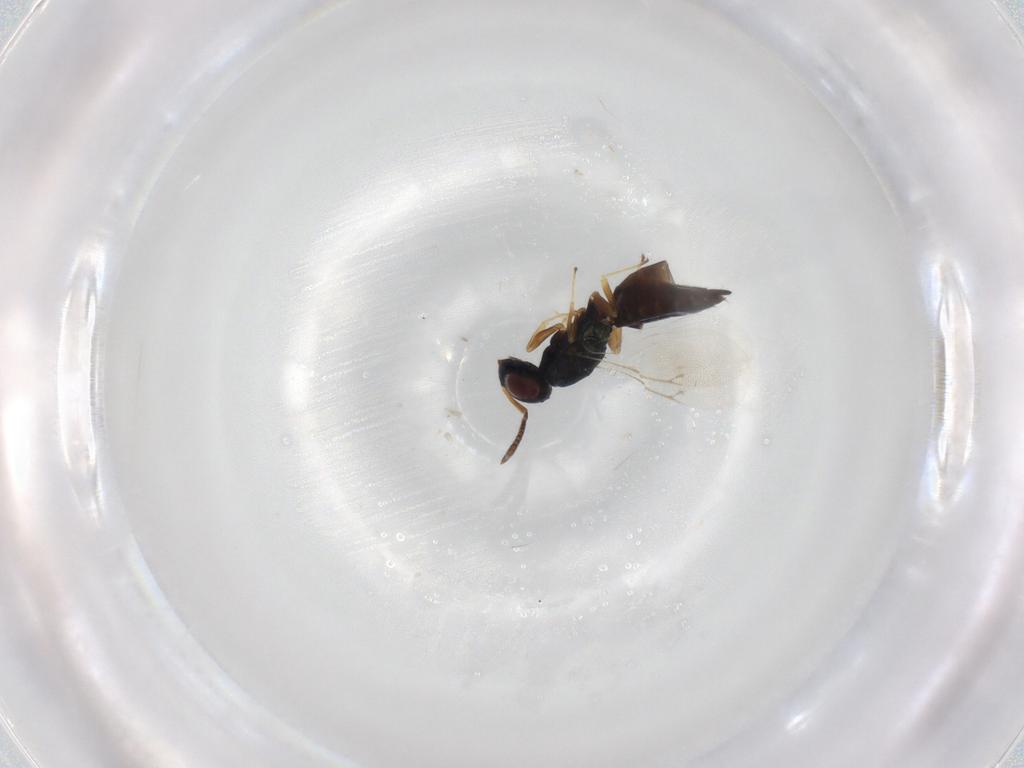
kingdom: Animalia
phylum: Arthropoda
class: Insecta
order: Hymenoptera
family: Pteromalidae
